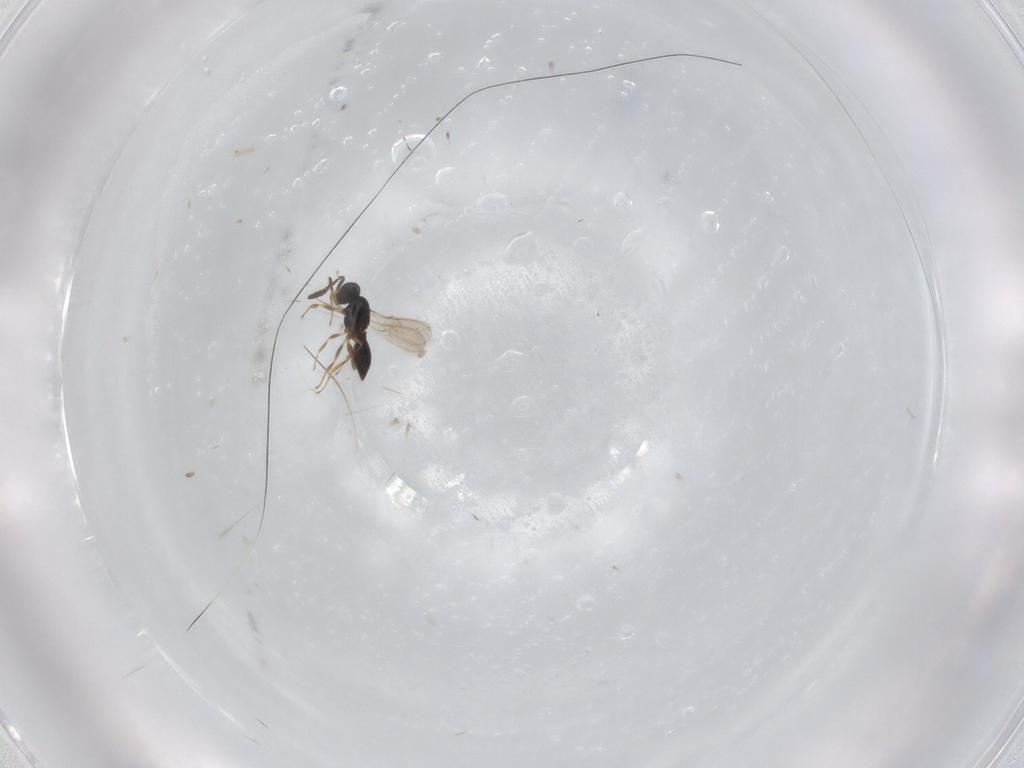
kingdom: Animalia
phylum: Arthropoda
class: Insecta
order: Hymenoptera
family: Scelionidae
